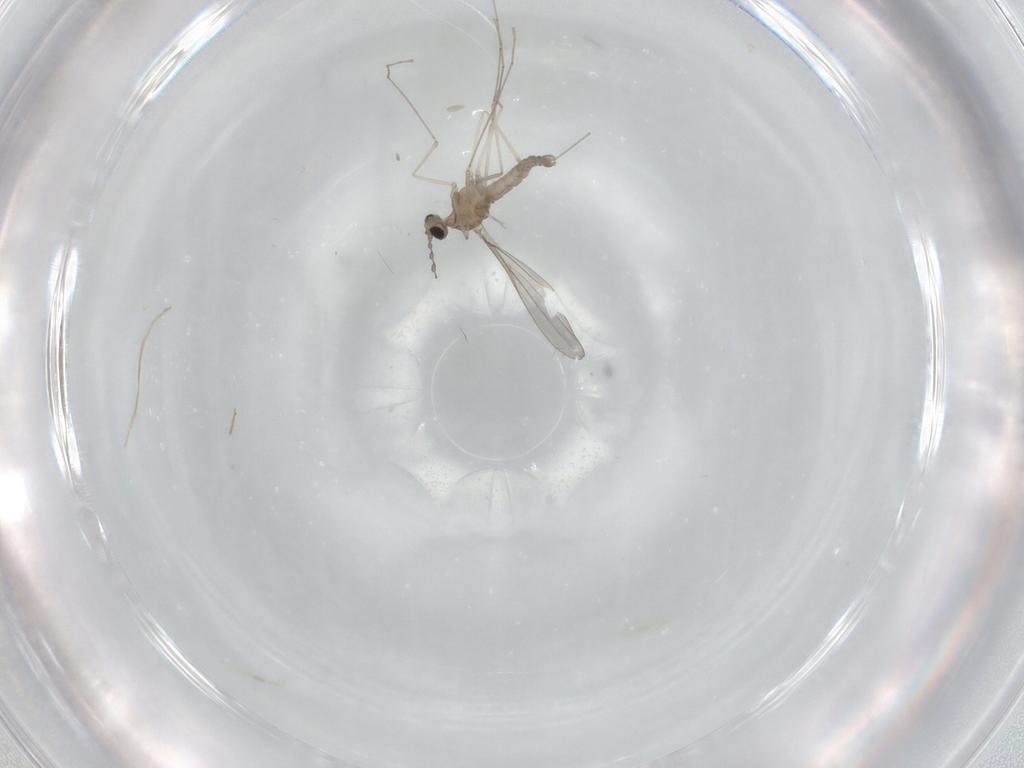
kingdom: Animalia
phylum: Arthropoda
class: Insecta
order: Diptera
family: Cecidomyiidae
